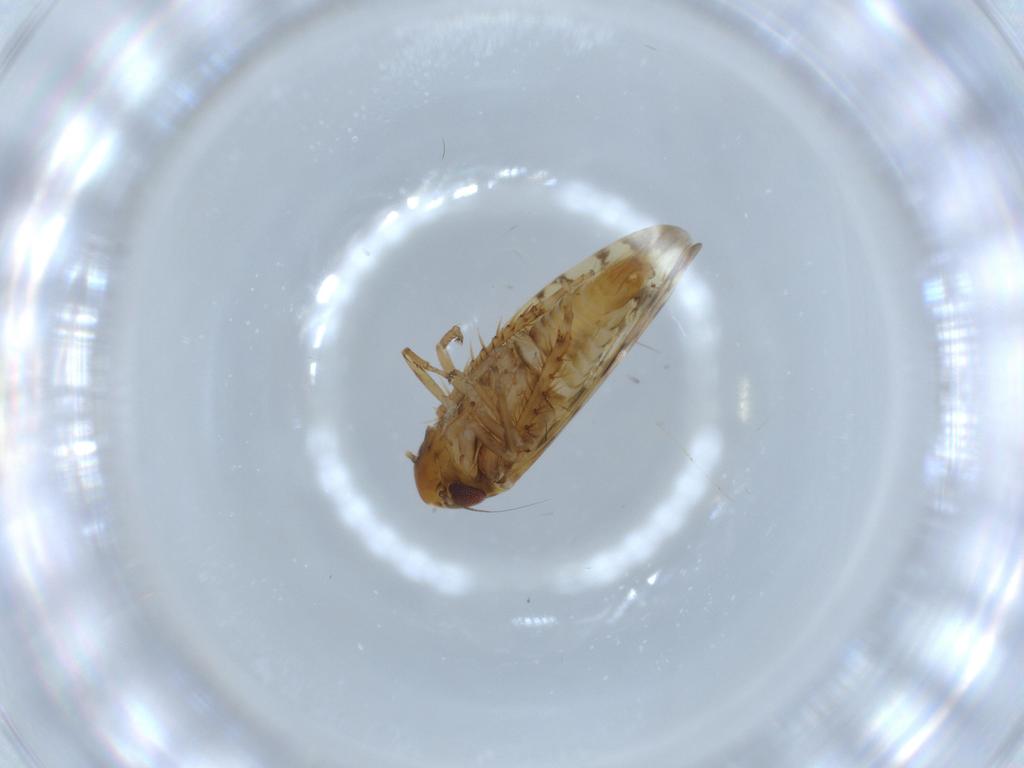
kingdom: Animalia
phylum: Arthropoda
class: Insecta
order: Hemiptera
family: Cicadellidae
